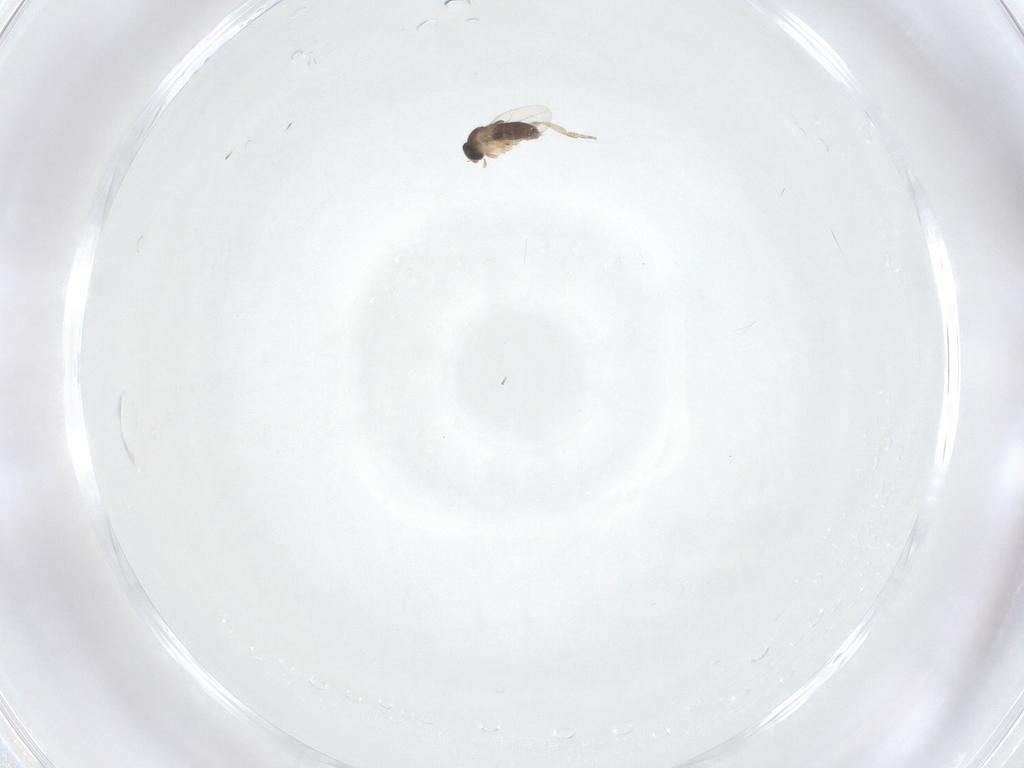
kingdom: Animalia
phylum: Arthropoda
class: Insecta
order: Diptera
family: Phoridae
